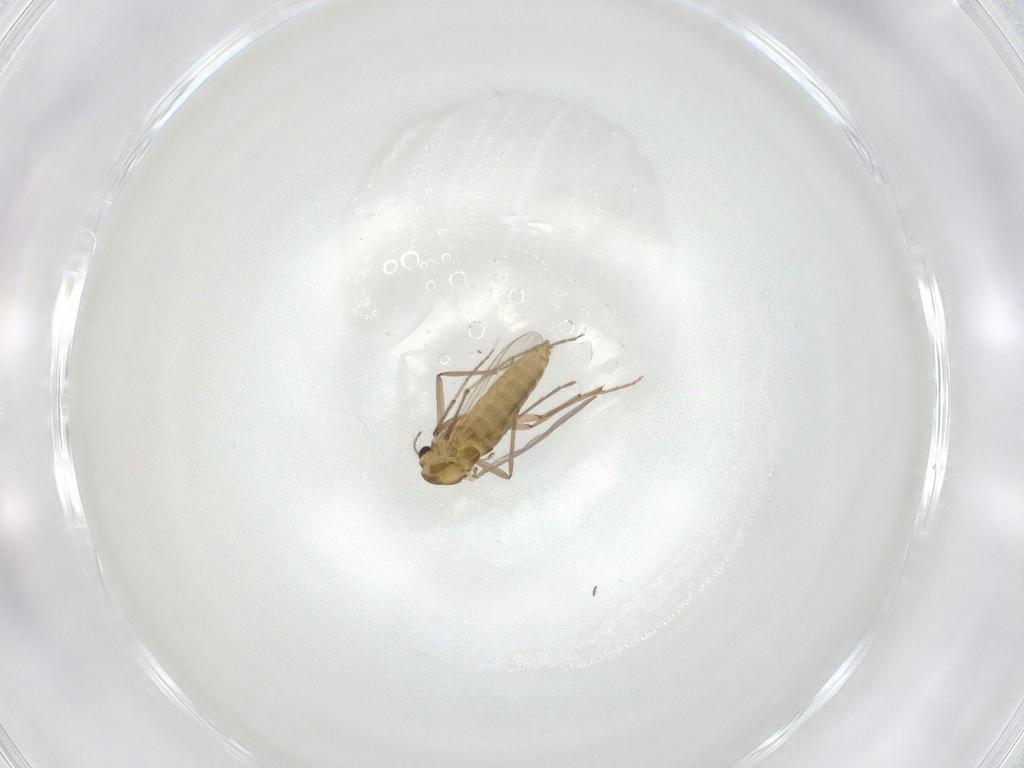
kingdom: Animalia
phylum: Arthropoda
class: Insecta
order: Diptera
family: Chironomidae
